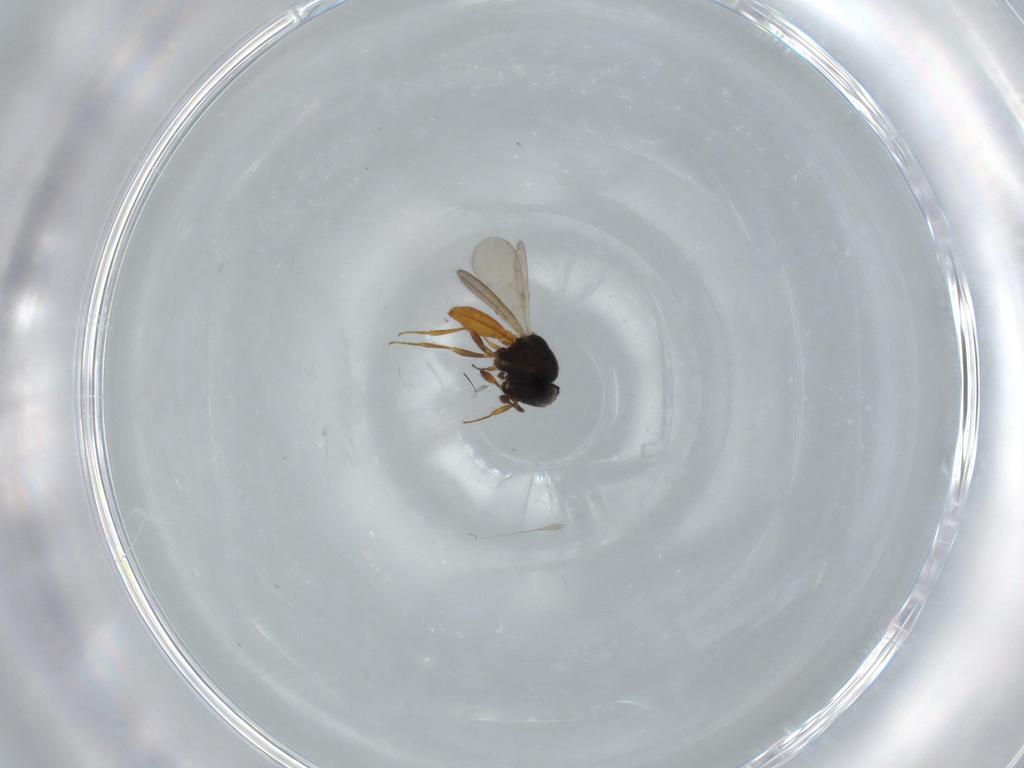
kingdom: Animalia
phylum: Arthropoda
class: Insecta
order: Hymenoptera
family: Scelionidae
